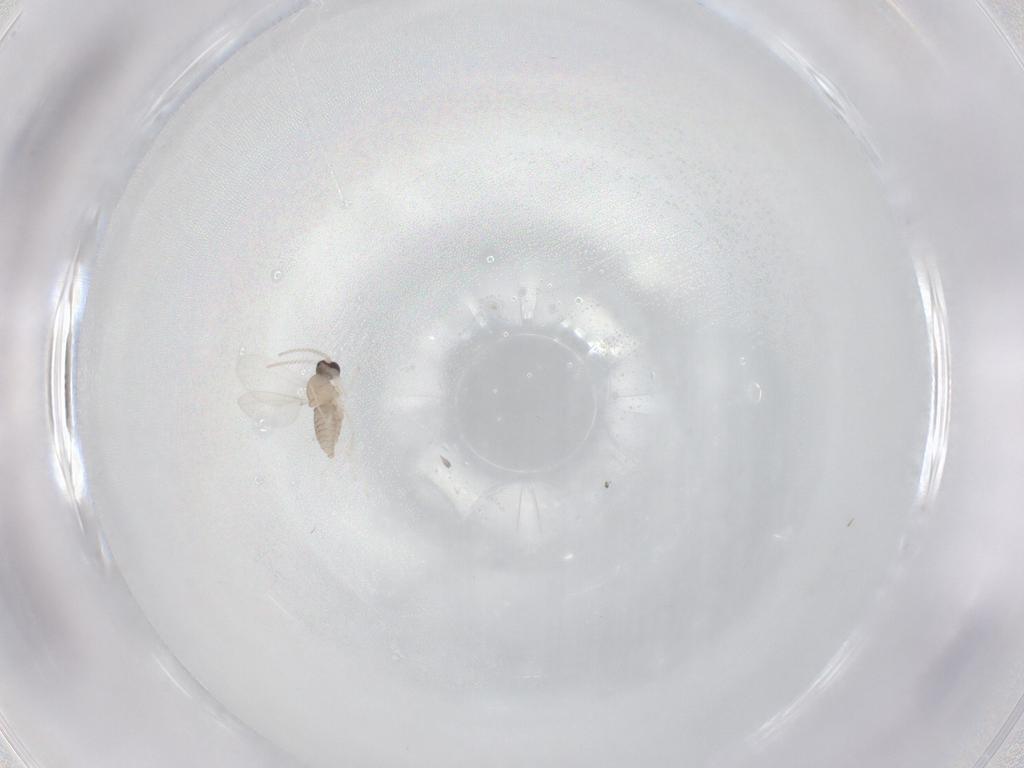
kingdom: Animalia
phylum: Arthropoda
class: Insecta
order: Diptera
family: Cecidomyiidae
